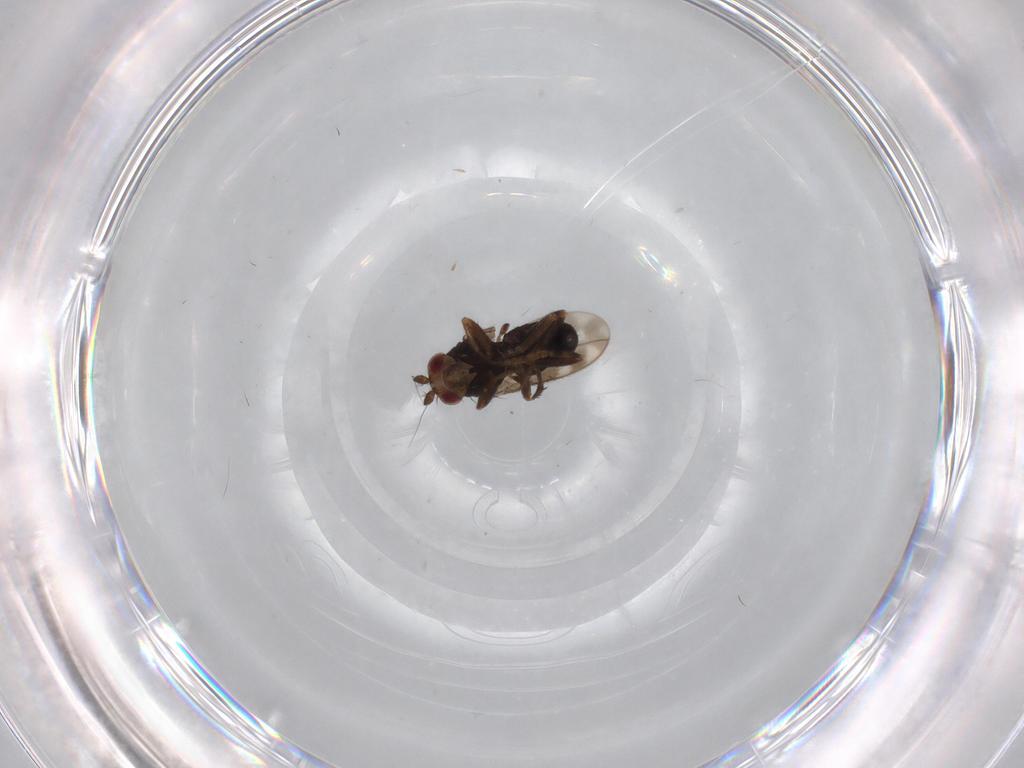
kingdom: Animalia
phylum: Arthropoda
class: Insecta
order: Diptera
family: Sphaeroceridae
